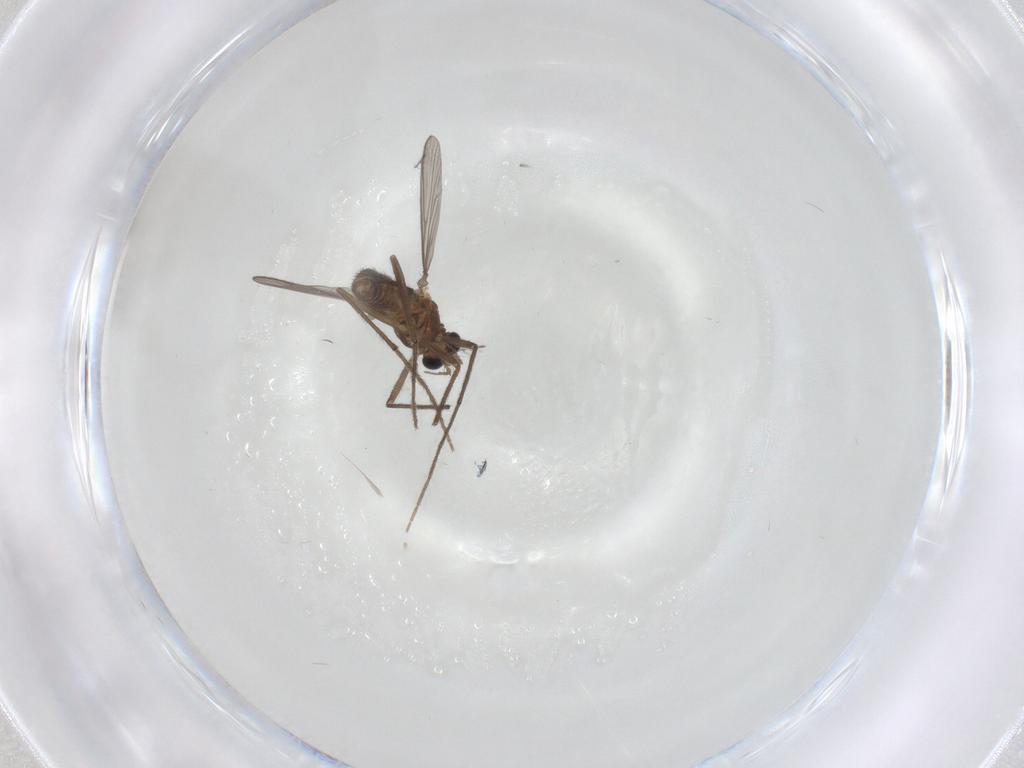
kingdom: Animalia
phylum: Arthropoda
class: Insecta
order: Diptera
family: Chironomidae
